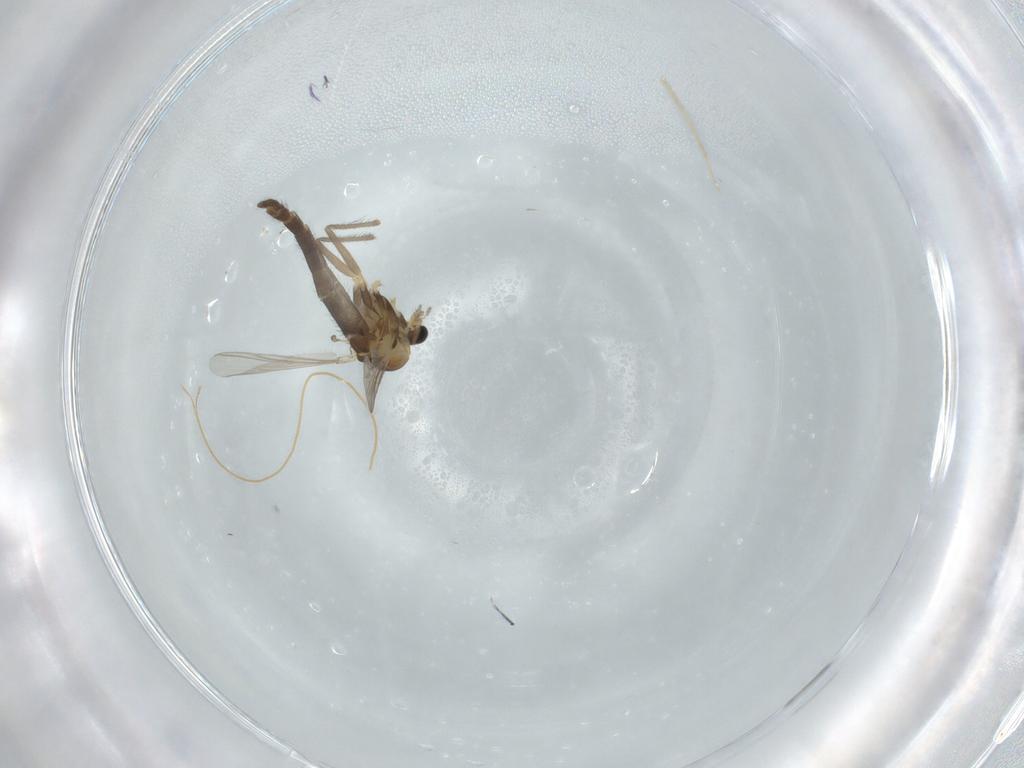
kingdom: Animalia
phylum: Arthropoda
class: Insecta
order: Diptera
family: Chironomidae
